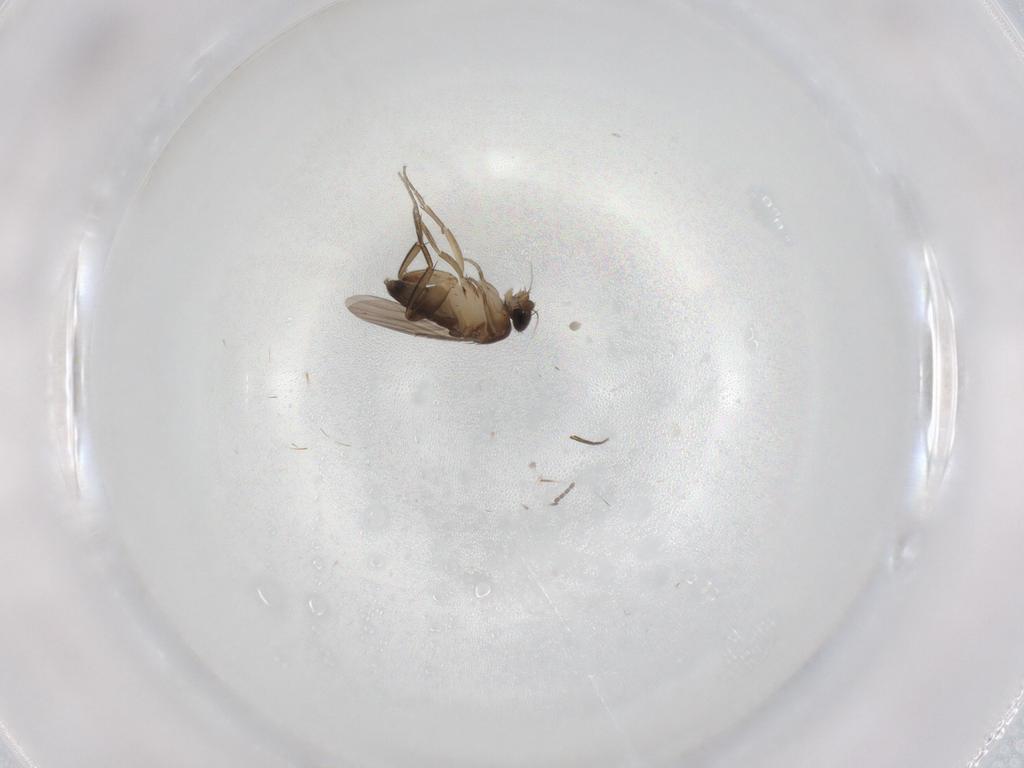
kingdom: Animalia
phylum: Arthropoda
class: Insecta
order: Diptera
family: Phoridae
